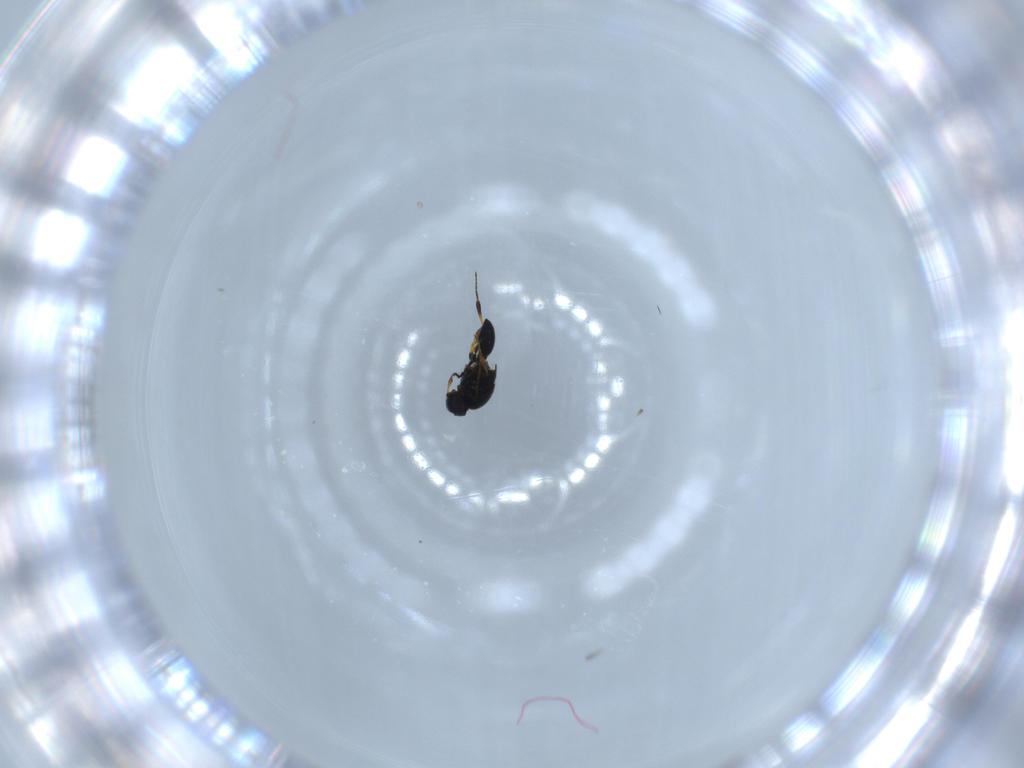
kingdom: Animalia
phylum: Arthropoda
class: Insecta
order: Hymenoptera
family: Platygastridae
